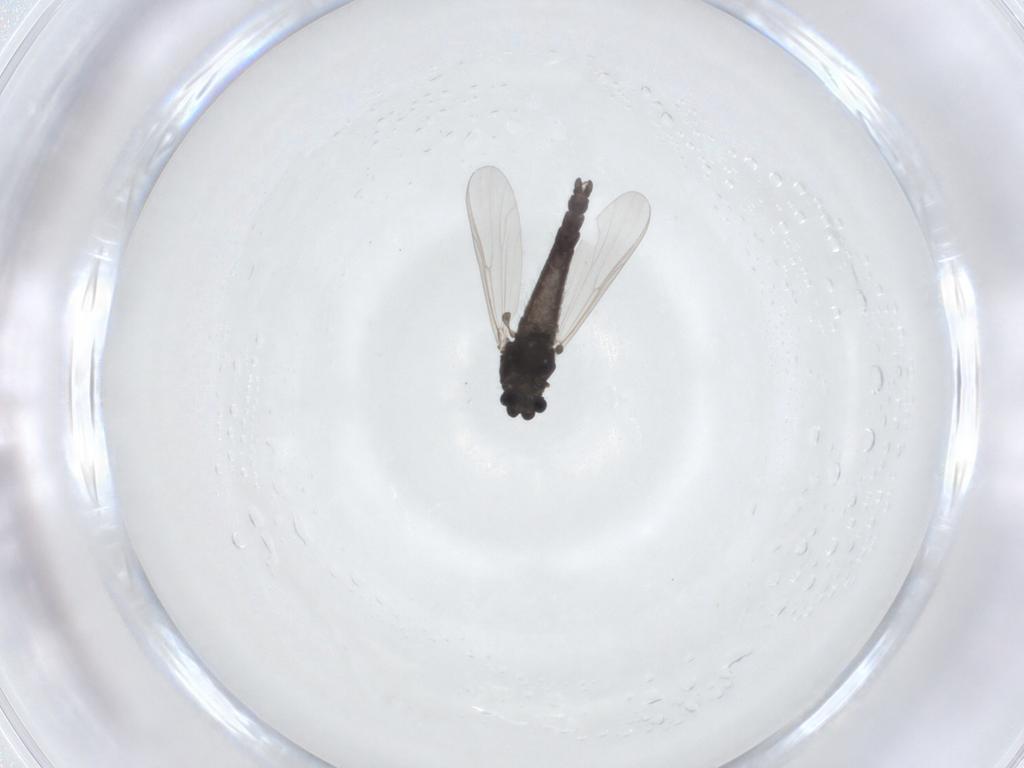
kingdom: Animalia
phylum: Arthropoda
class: Insecta
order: Diptera
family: Chironomidae
